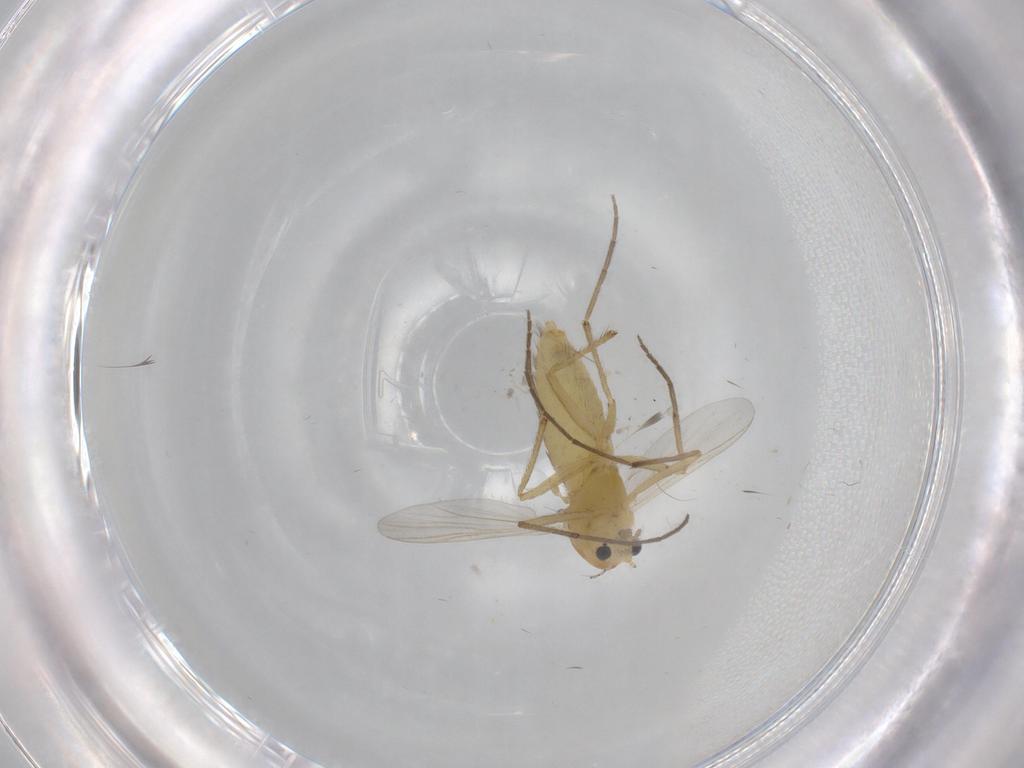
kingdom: Animalia
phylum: Arthropoda
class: Insecta
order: Diptera
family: Chironomidae
